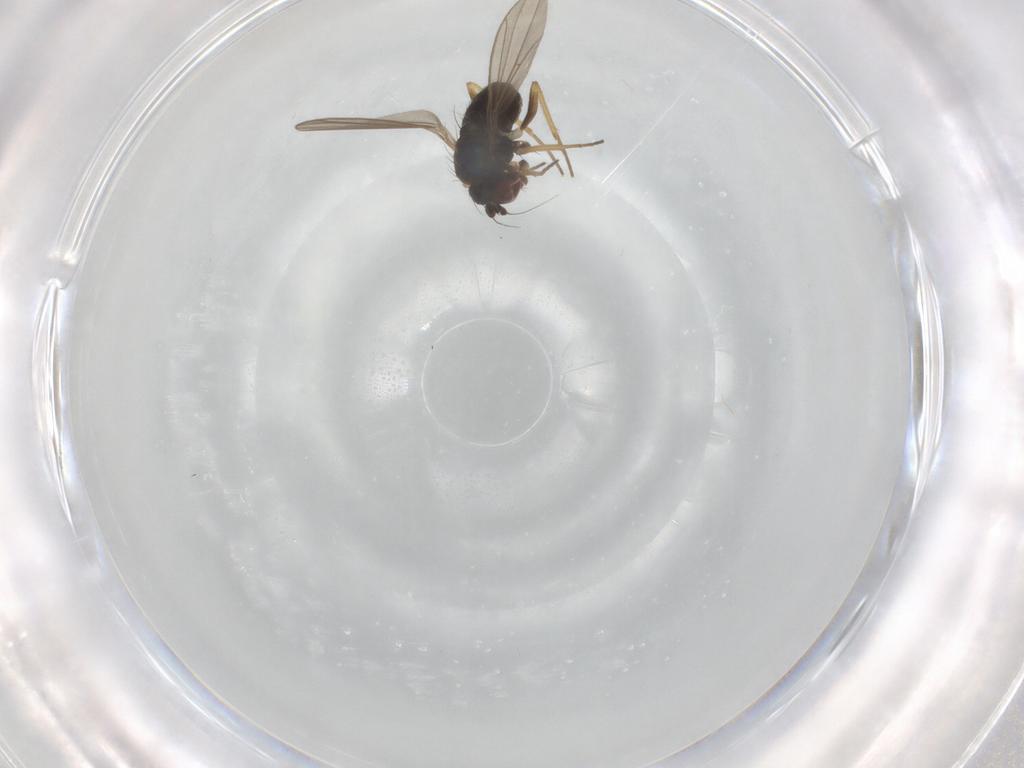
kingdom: Animalia
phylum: Arthropoda
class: Insecta
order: Diptera
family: Dolichopodidae
